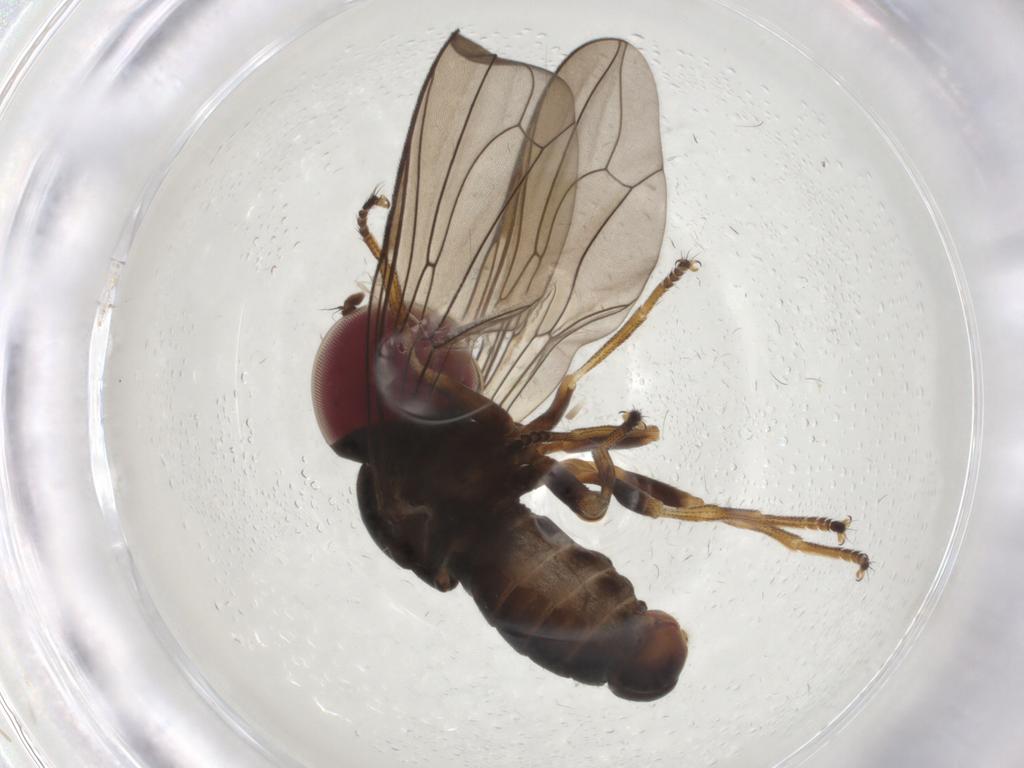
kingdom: Animalia
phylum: Arthropoda
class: Insecta
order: Diptera
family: Pipunculidae
